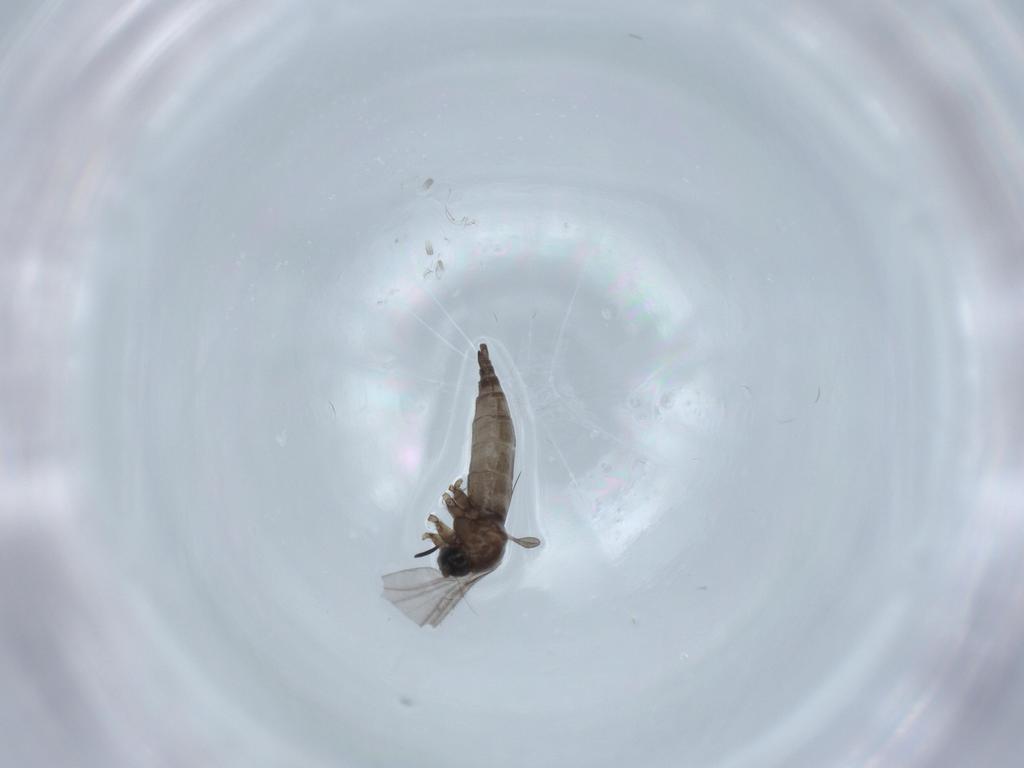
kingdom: Animalia
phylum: Arthropoda
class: Insecta
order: Diptera
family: Sciaridae
